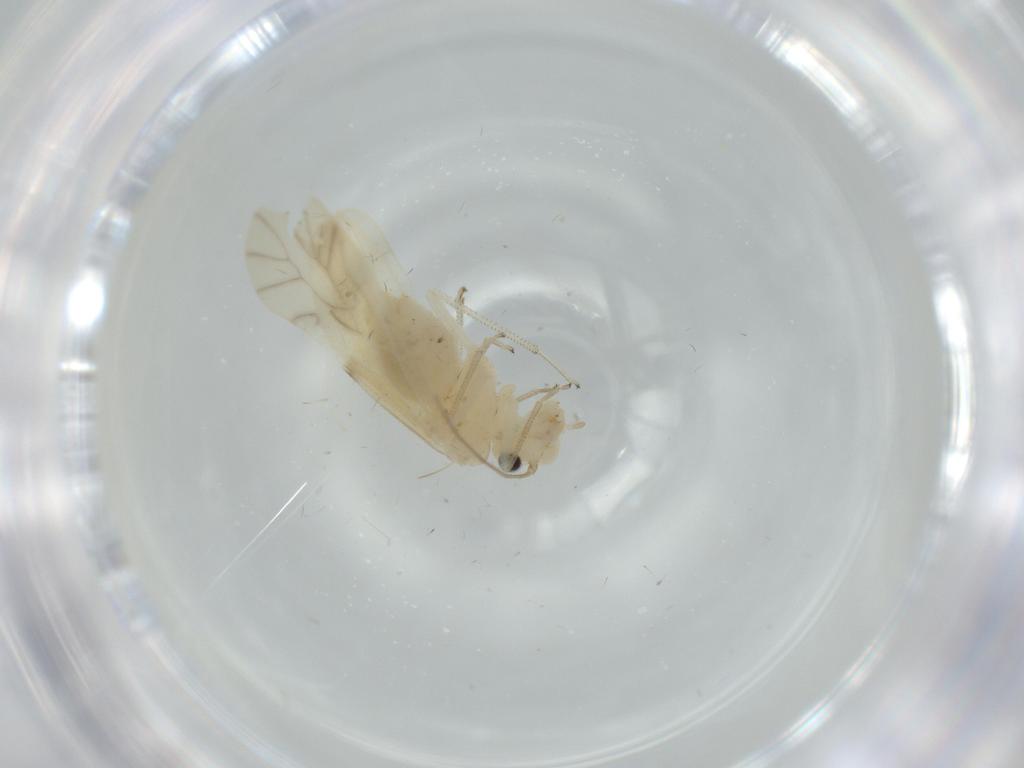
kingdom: Animalia
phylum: Arthropoda
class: Insecta
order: Psocodea
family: Caeciliusidae
